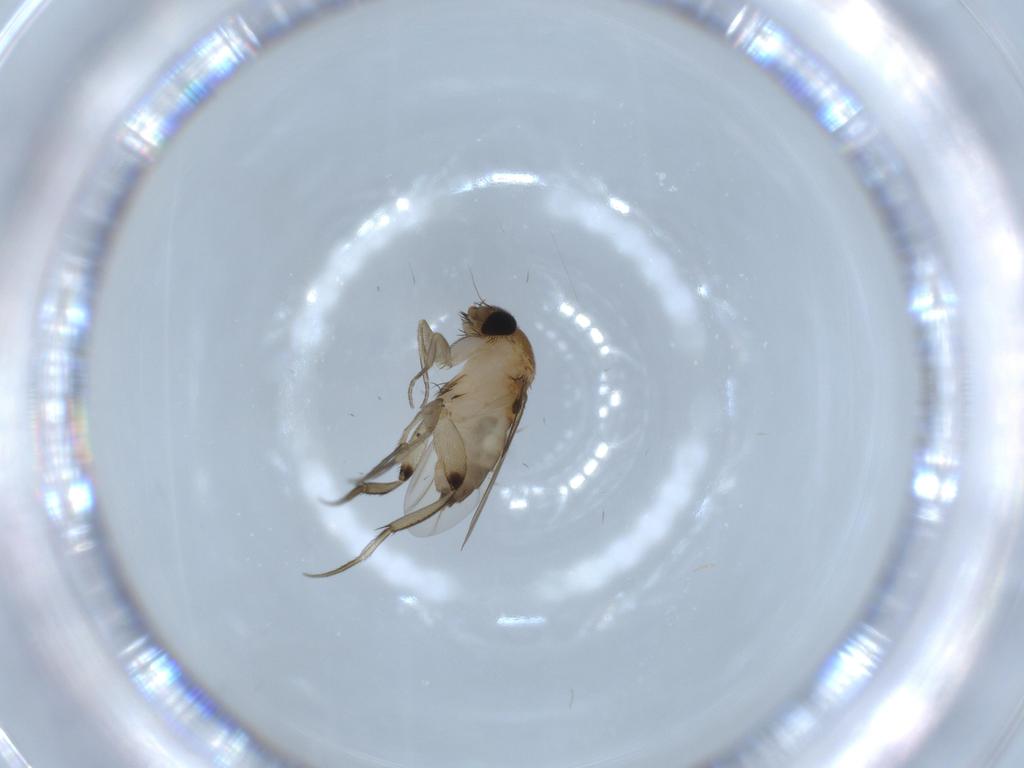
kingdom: Animalia
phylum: Arthropoda
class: Insecta
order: Diptera
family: Phoridae
